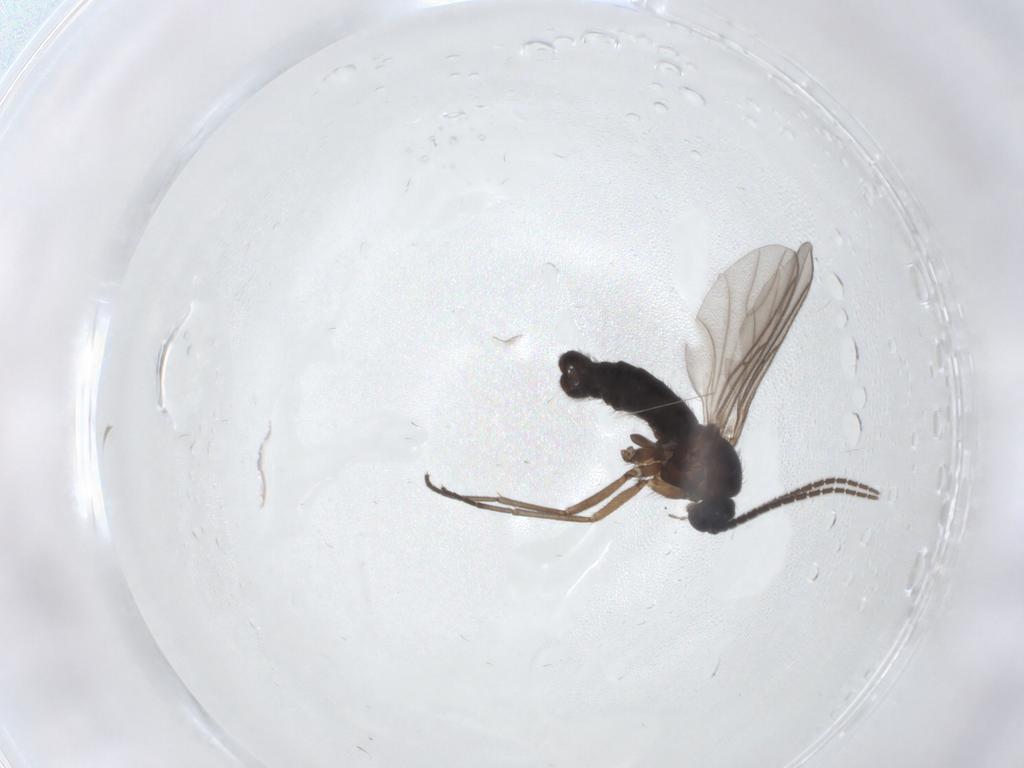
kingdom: Animalia
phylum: Arthropoda
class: Insecta
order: Diptera
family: Sciaridae
